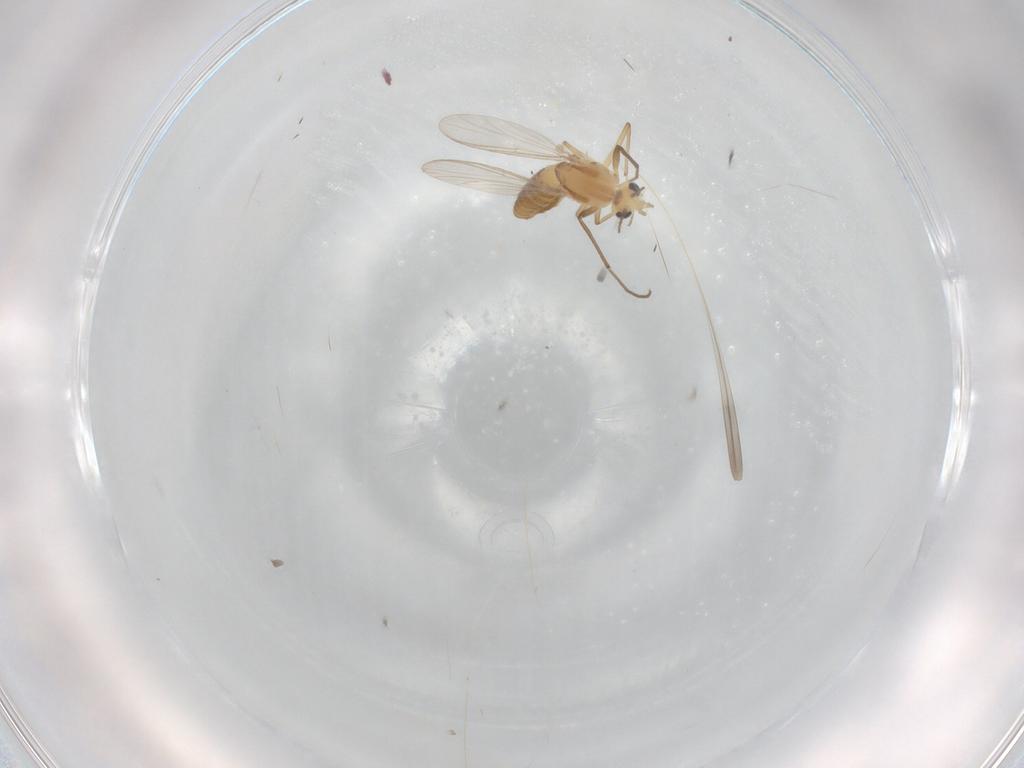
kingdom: Animalia
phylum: Arthropoda
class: Insecta
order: Diptera
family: Chironomidae
